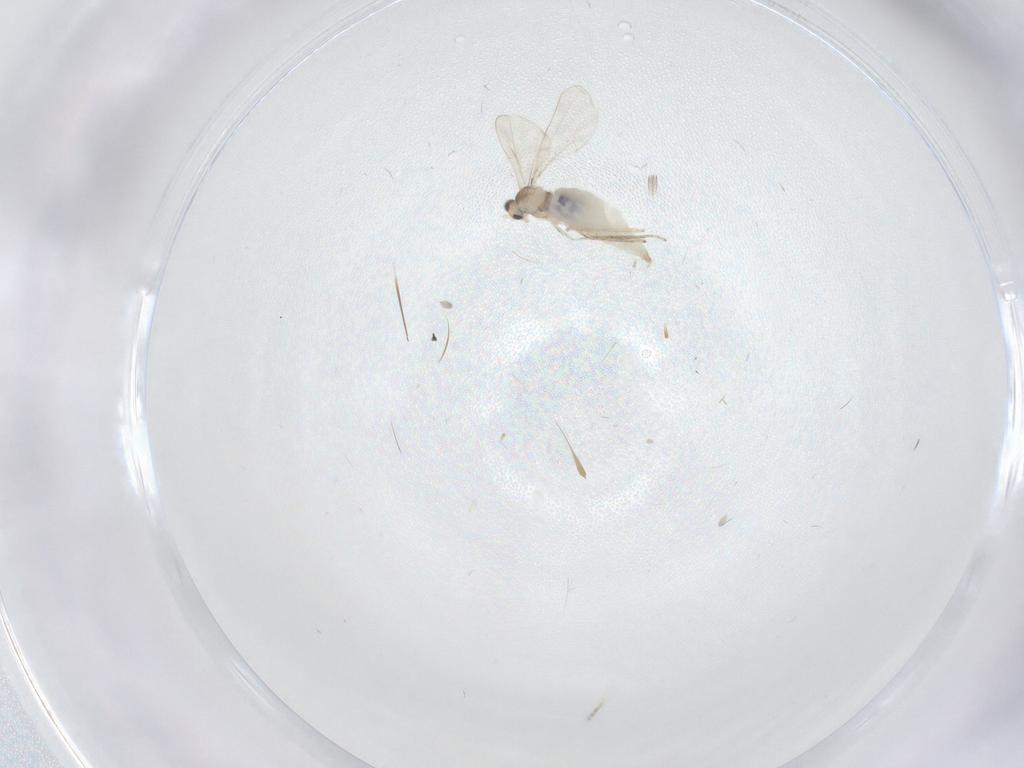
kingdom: Animalia
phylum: Arthropoda
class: Insecta
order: Diptera
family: Cecidomyiidae
